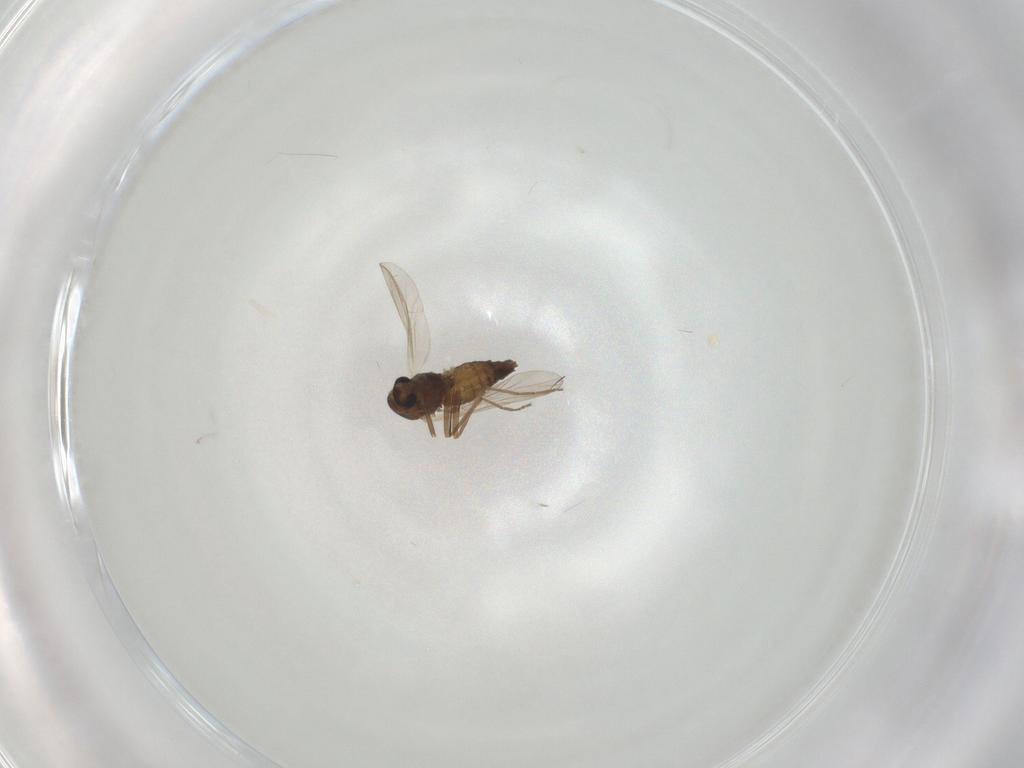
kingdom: Animalia
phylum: Arthropoda
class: Insecta
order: Diptera
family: Chironomidae
